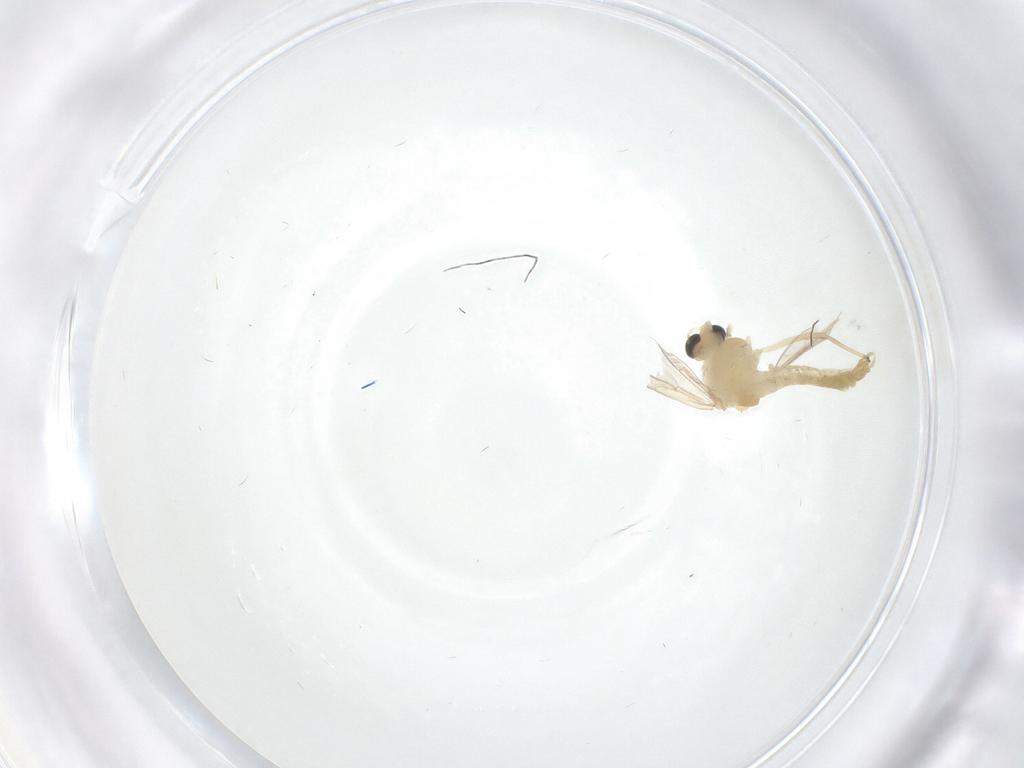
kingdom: Animalia
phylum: Arthropoda
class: Insecta
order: Diptera
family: Chironomidae
